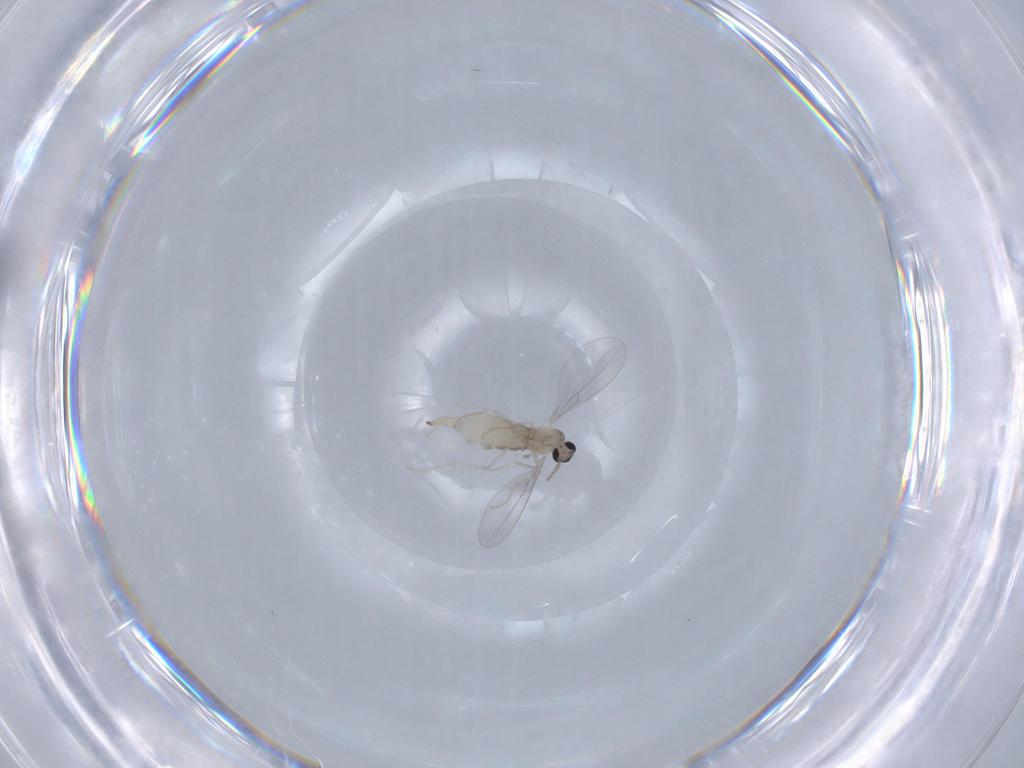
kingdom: Animalia
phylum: Arthropoda
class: Insecta
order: Diptera
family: Cecidomyiidae
